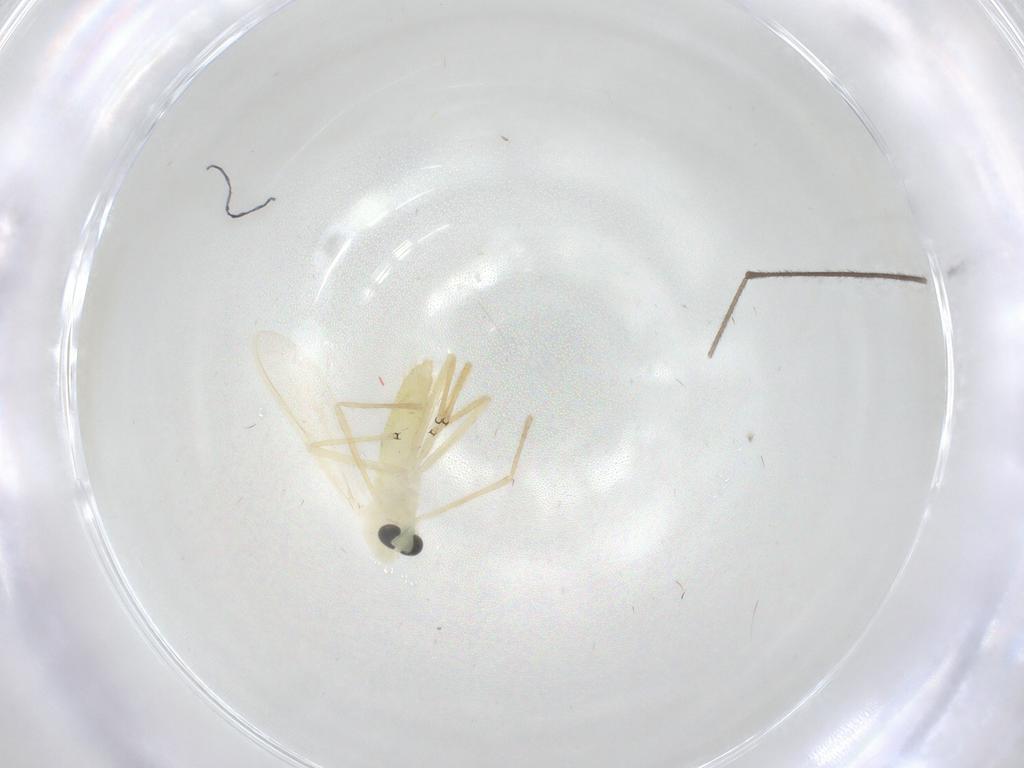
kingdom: Animalia
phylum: Arthropoda
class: Insecta
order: Diptera
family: Chironomidae
